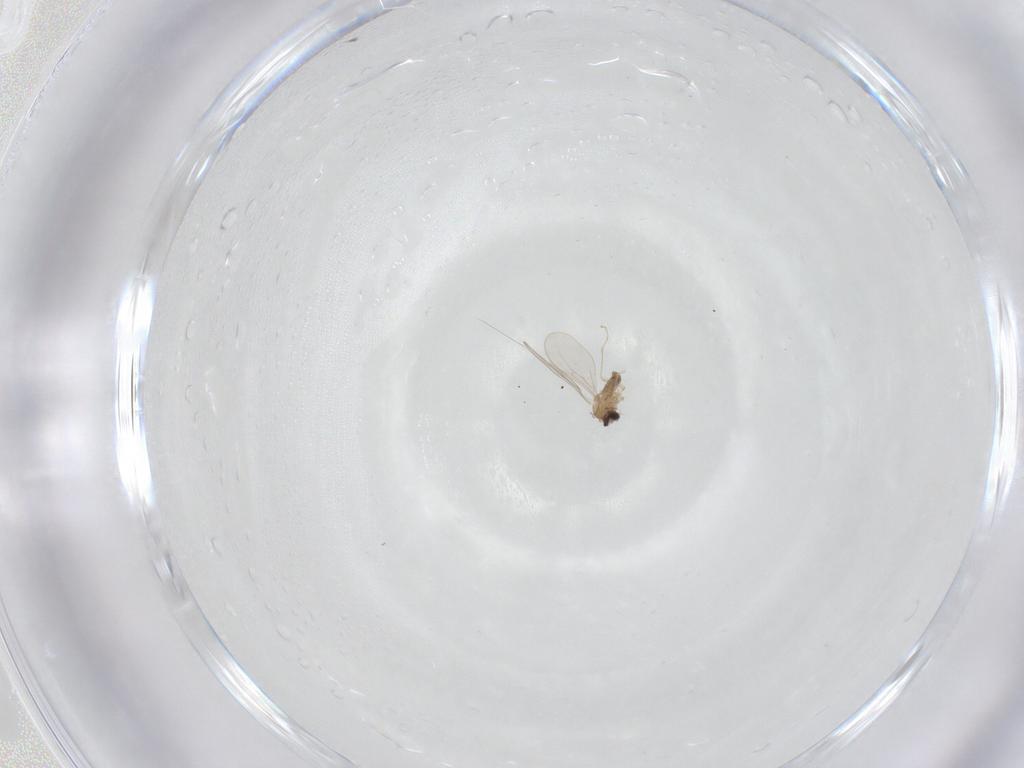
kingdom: Animalia
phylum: Arthropoda
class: Insecta
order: Diptera
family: Cecidomyiidae
